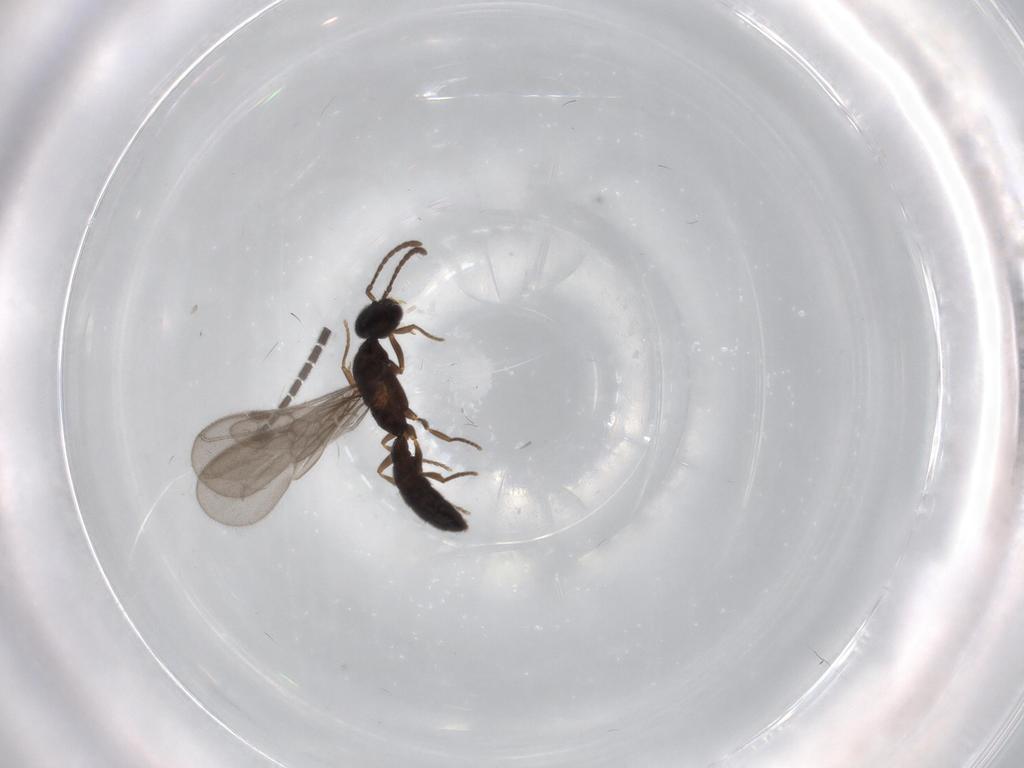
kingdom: Animalia
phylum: Arthropoda
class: Insecta
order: Hymenoptera
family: Formicidae
